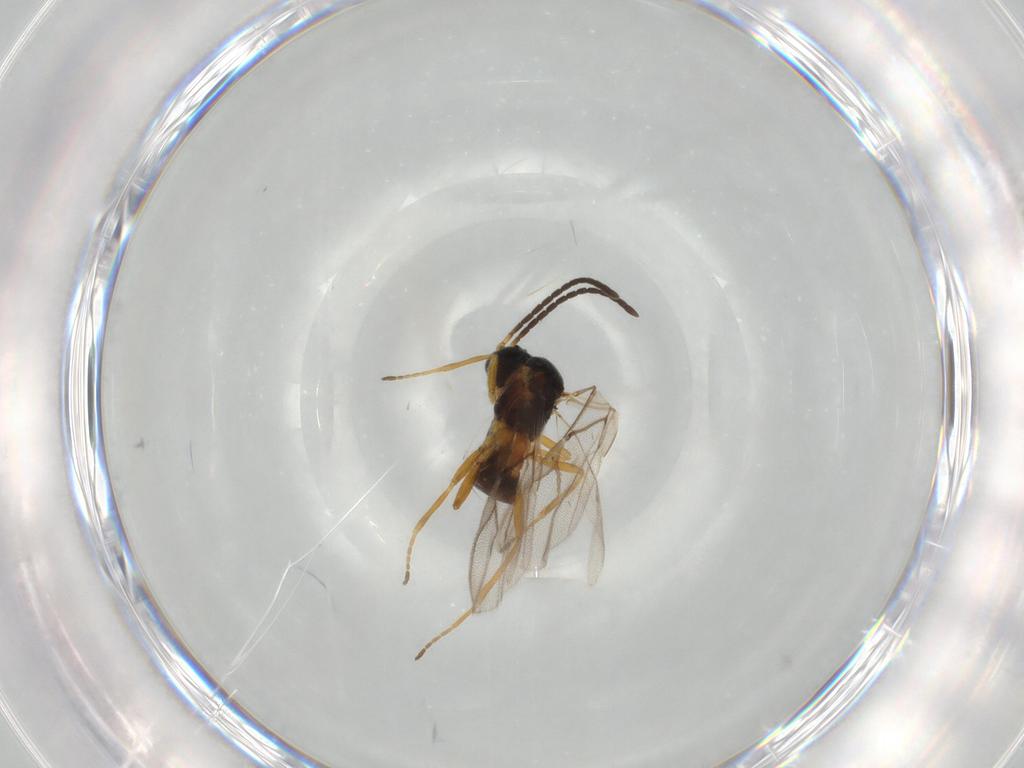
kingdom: Animalia
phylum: Arthropoda
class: Insecta
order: Hymenoptera
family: Braconidae
